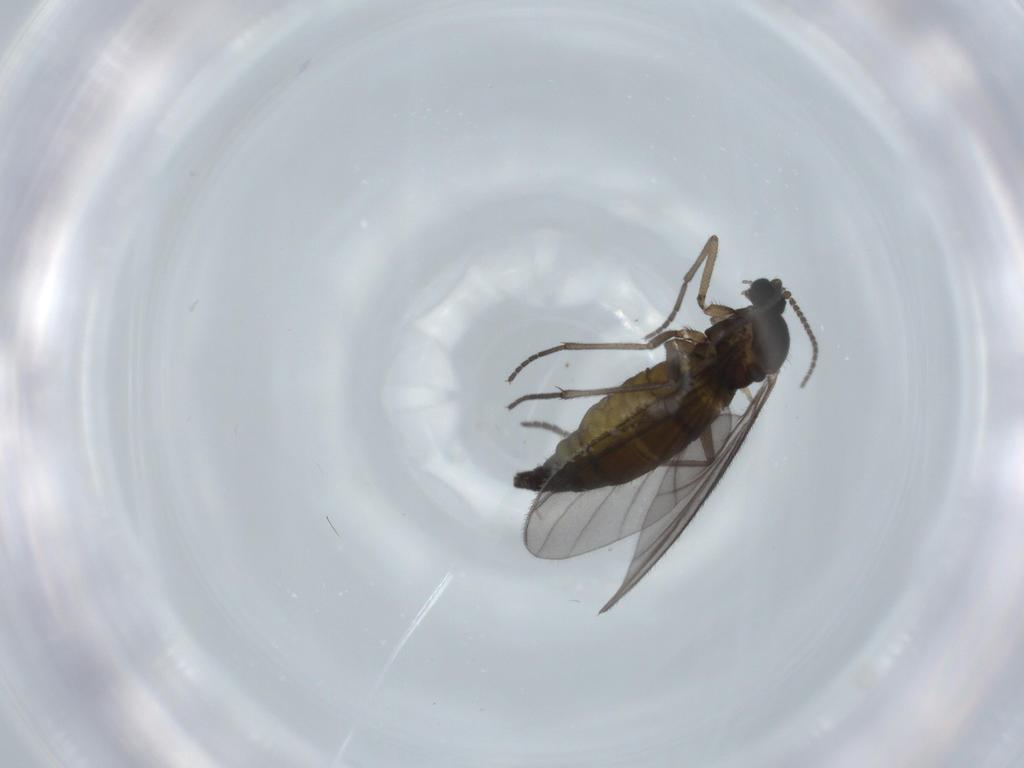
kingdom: Animalia
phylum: Arthropoda
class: Insecta
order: Diptera
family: Sciaridae
